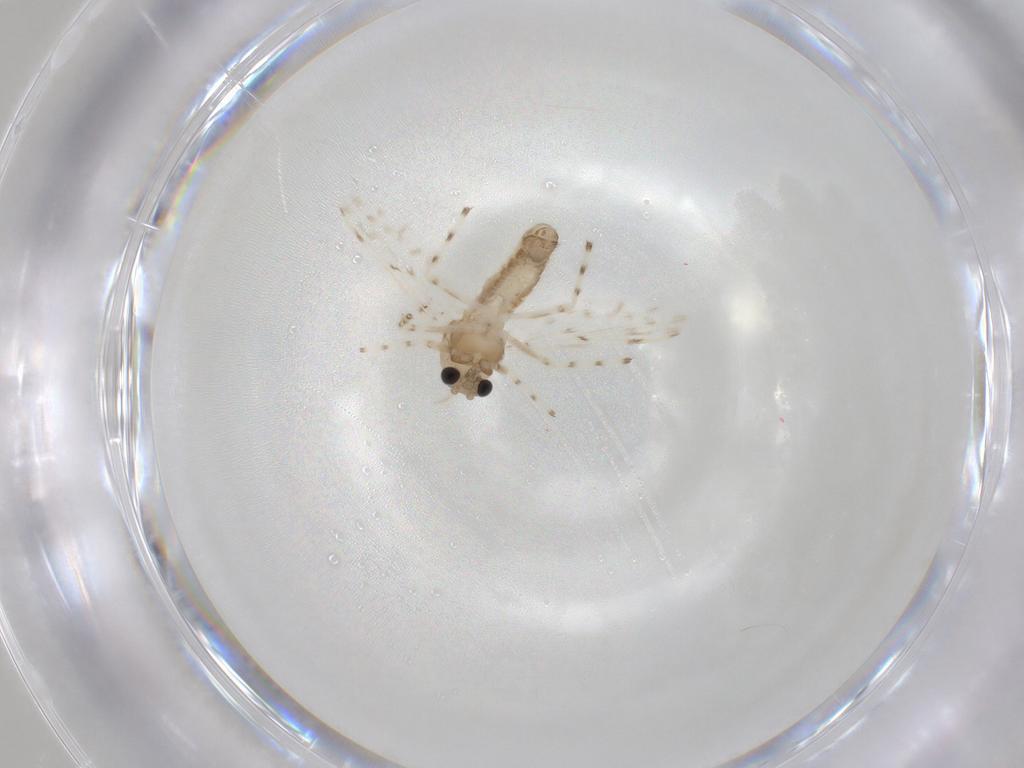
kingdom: Animalia
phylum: Arthropoda
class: Insecta
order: Diptera
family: Chironomidae
